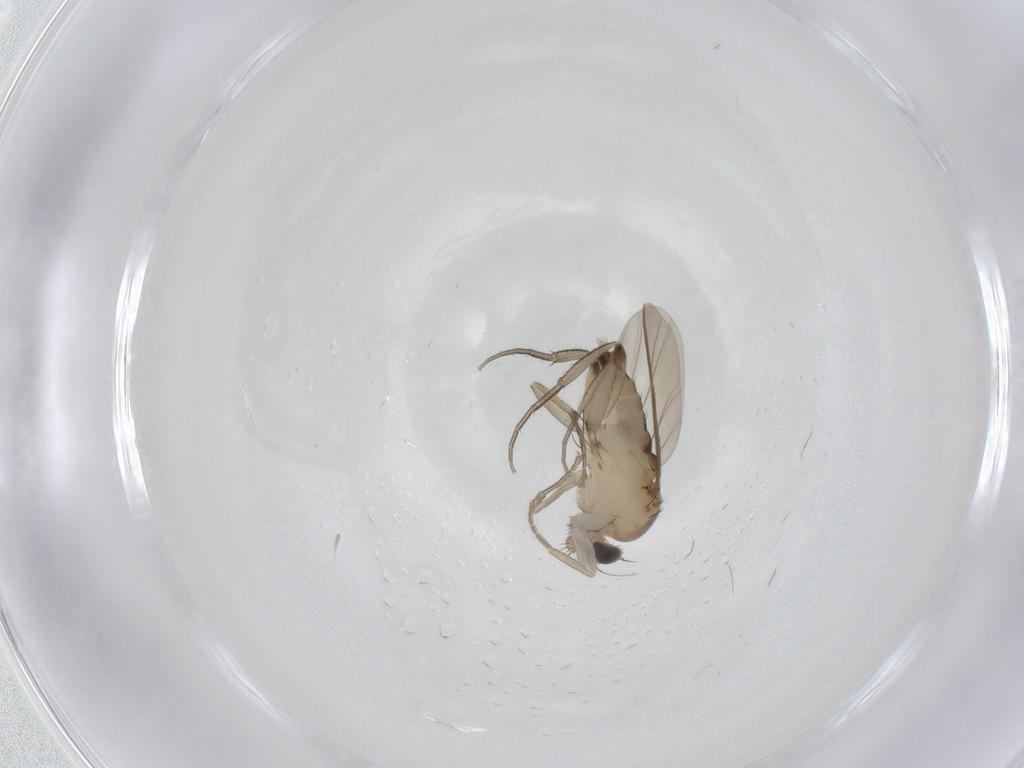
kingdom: Animalia
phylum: Arthropoda
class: Insecta
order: Diptera
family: Phoridae
